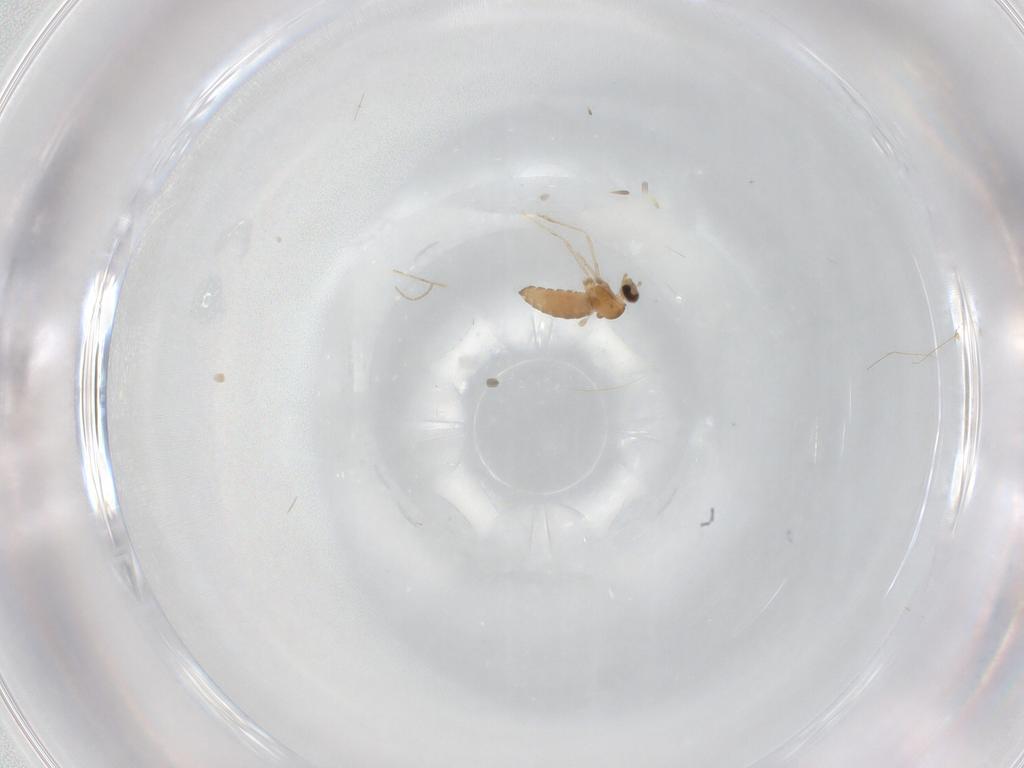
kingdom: Animalia
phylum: Arthropoda
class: Insecta
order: Diptera
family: Cecidomyiidae
